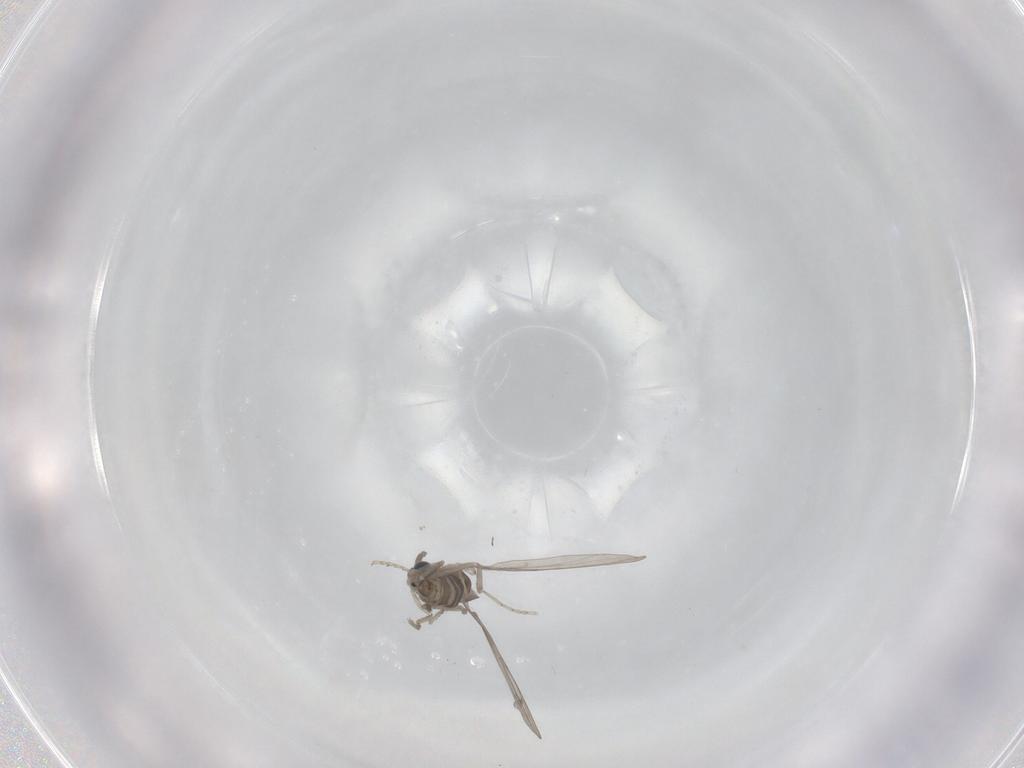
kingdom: Animalia
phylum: Arthropoda
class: Insecta
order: Diptera
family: Cecidomyiidae
